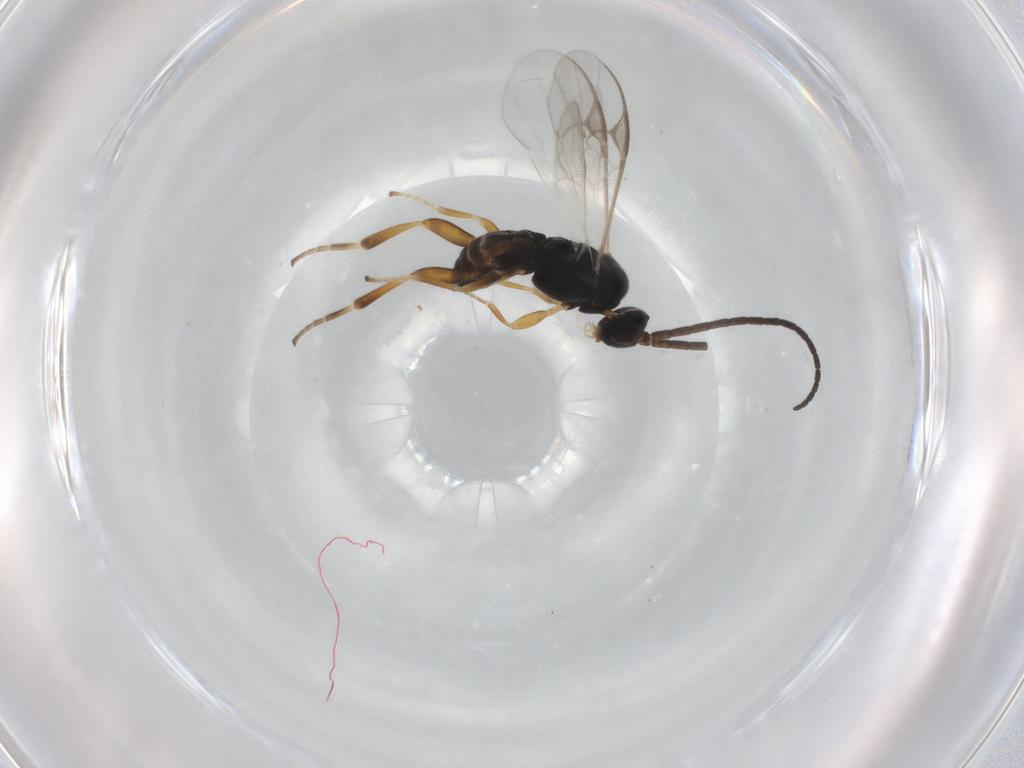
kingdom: Animalia
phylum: Arthropoda
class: Insecta
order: Hymenoptera
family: Braconidae
